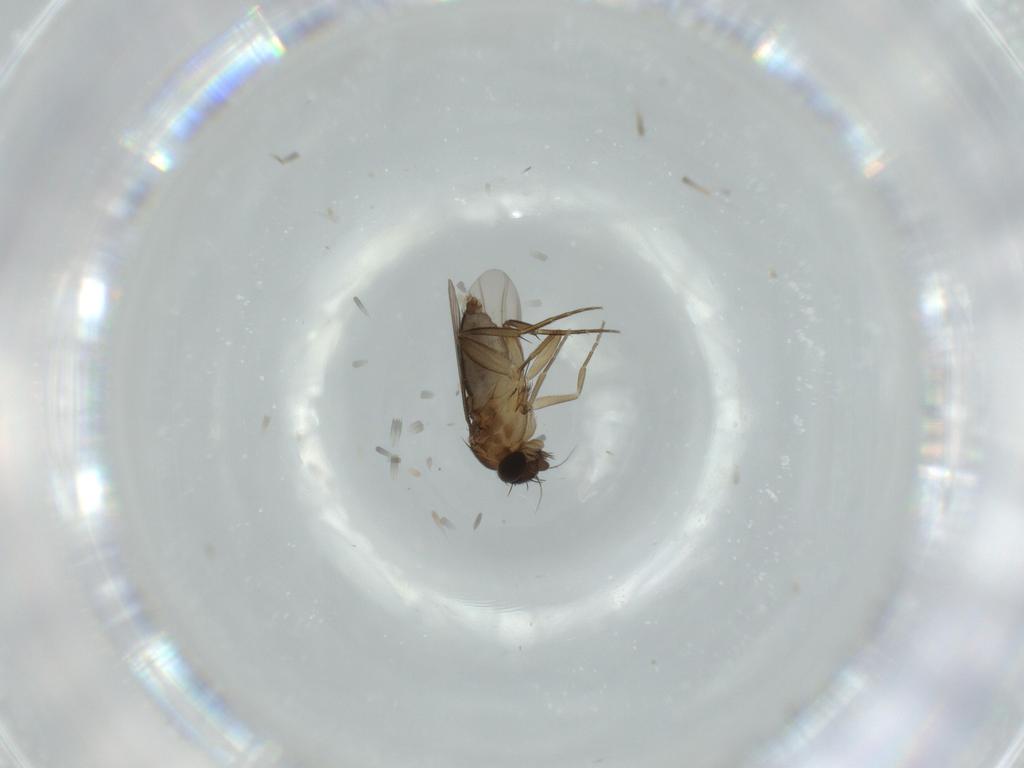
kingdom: Animalia
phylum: Arthropoda
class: Insecta
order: Diptera
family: Phoridae
